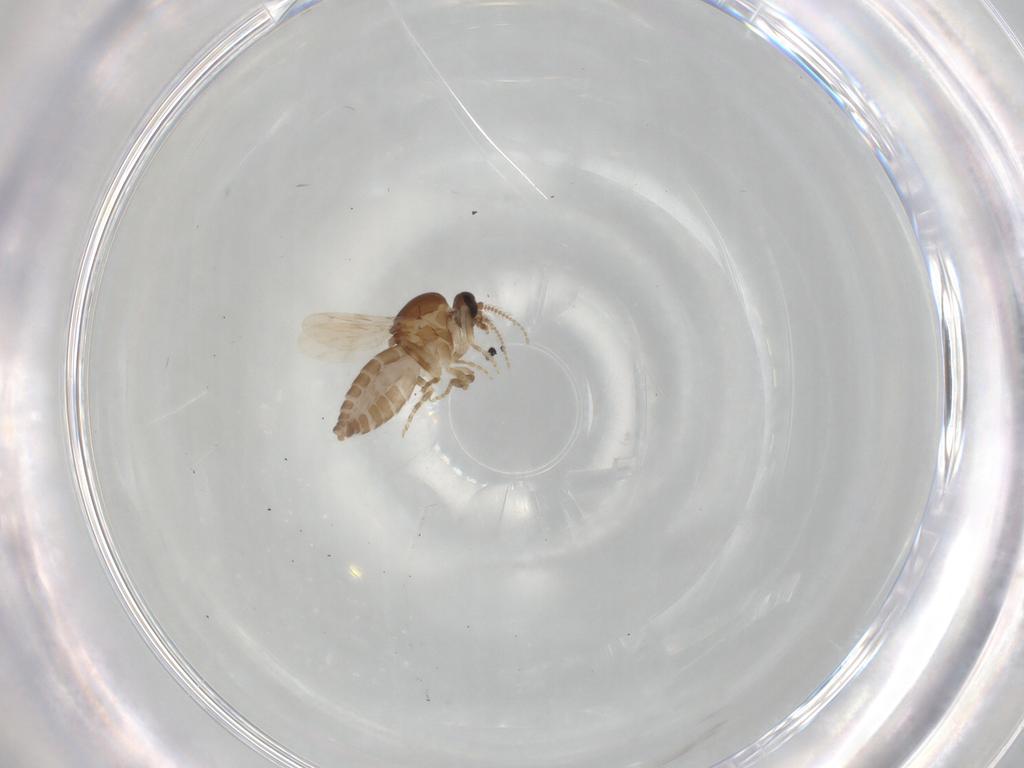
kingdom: Animalia
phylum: Arthropoda
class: Insecta
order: Diptera
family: Ceratopogonidae
